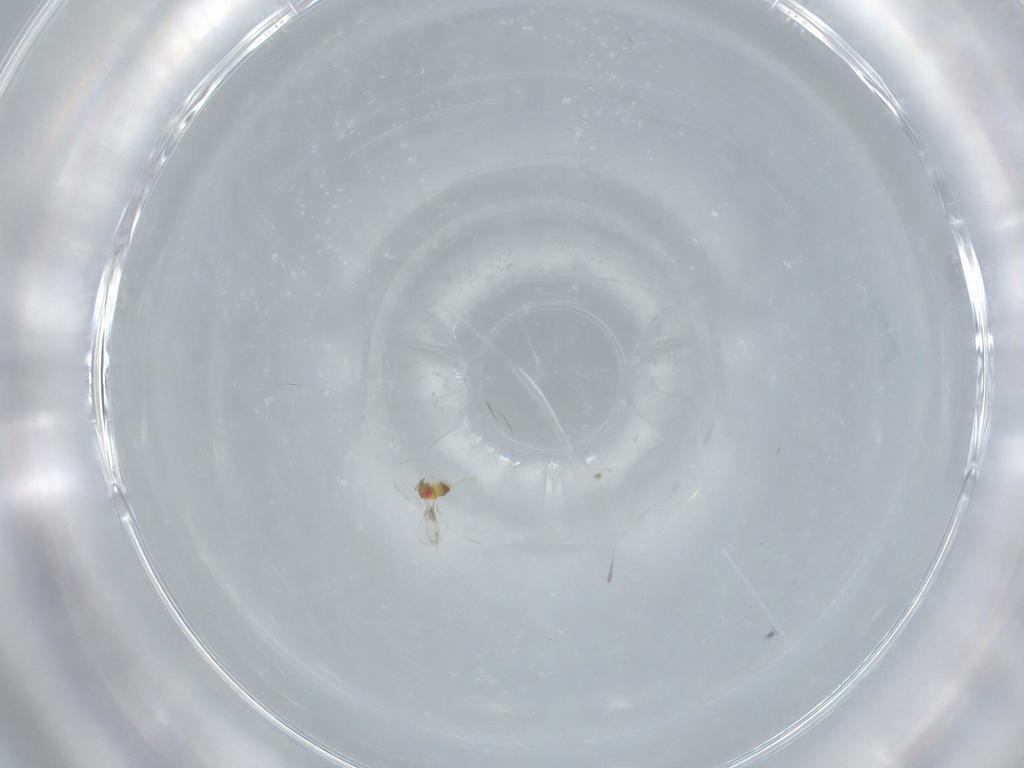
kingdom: Animalia
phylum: Arthropoda
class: Insecta
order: Hymenoptera
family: Trichogrammatidae
